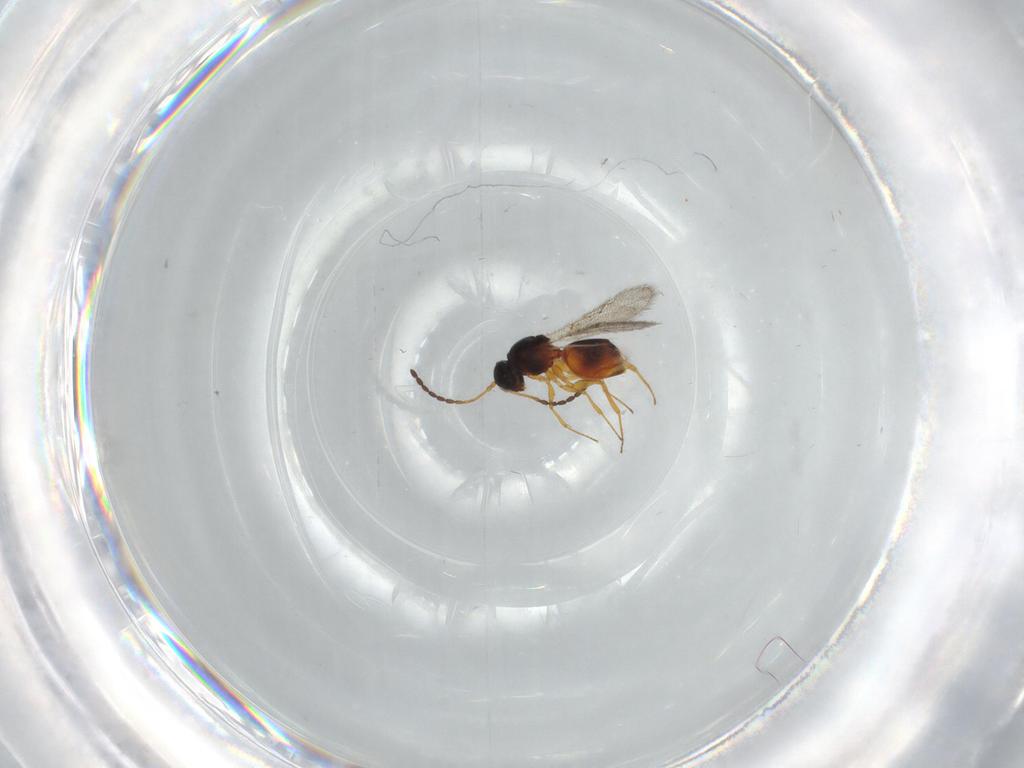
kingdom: Animalia
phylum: Arthropoda
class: Insecta
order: Hymenoptera
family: Figitidae
